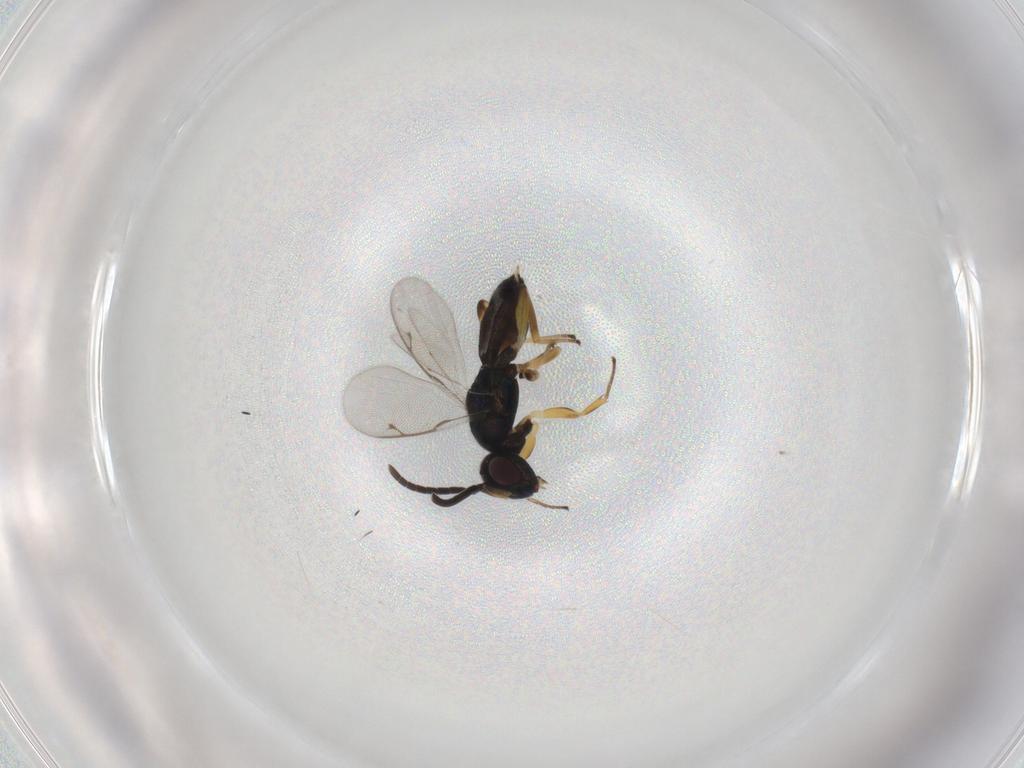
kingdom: Animalia
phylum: Arthropoda
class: Insecta
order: Hymenoptera
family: Eupelmidae
